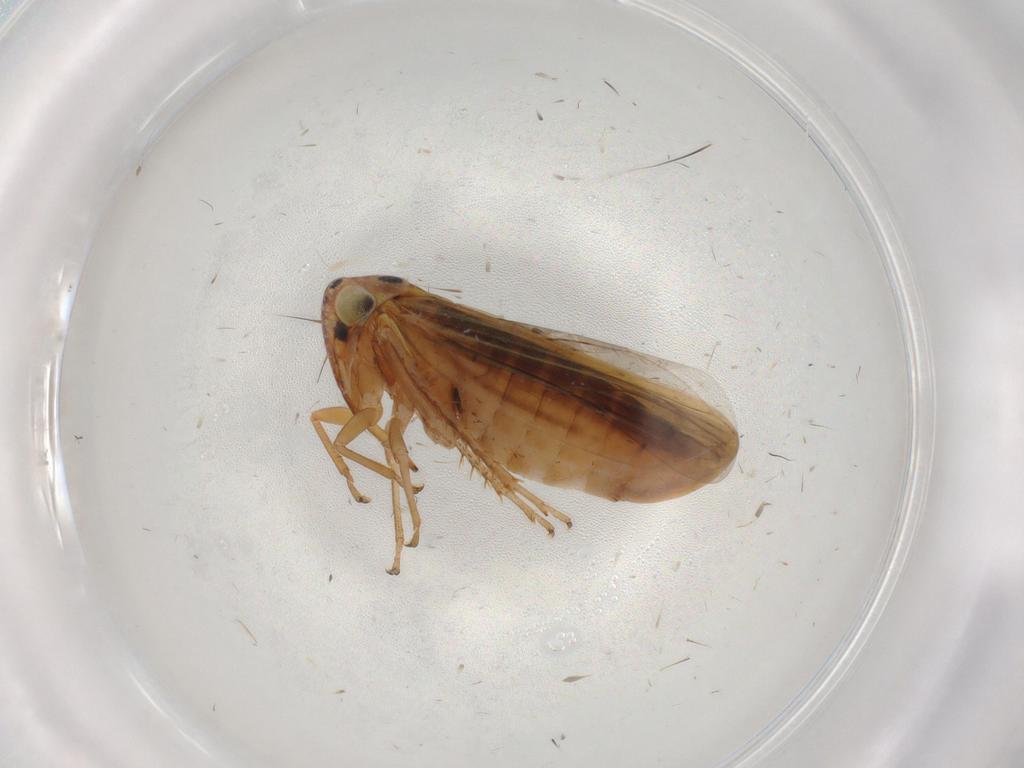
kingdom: Animalia
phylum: Arthropoda
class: Insecta
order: Hemiptera
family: Cicadellidae
